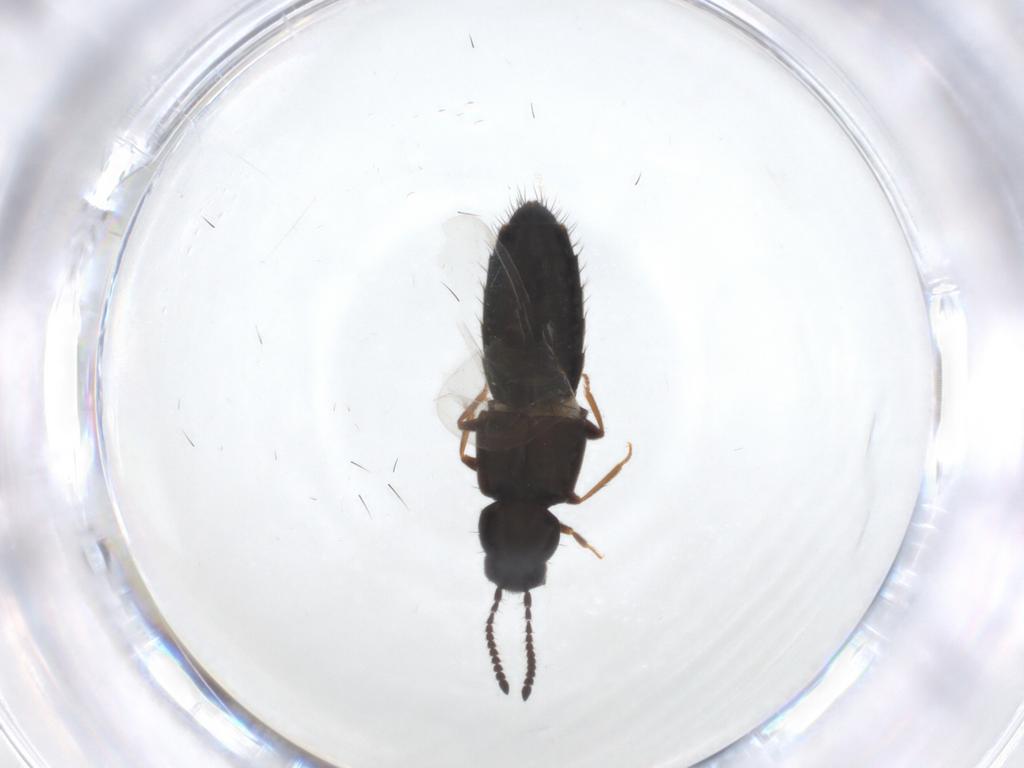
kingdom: Animalia
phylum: Arthropoda
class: Insecta
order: Coleoptera
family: Staphylinidae
